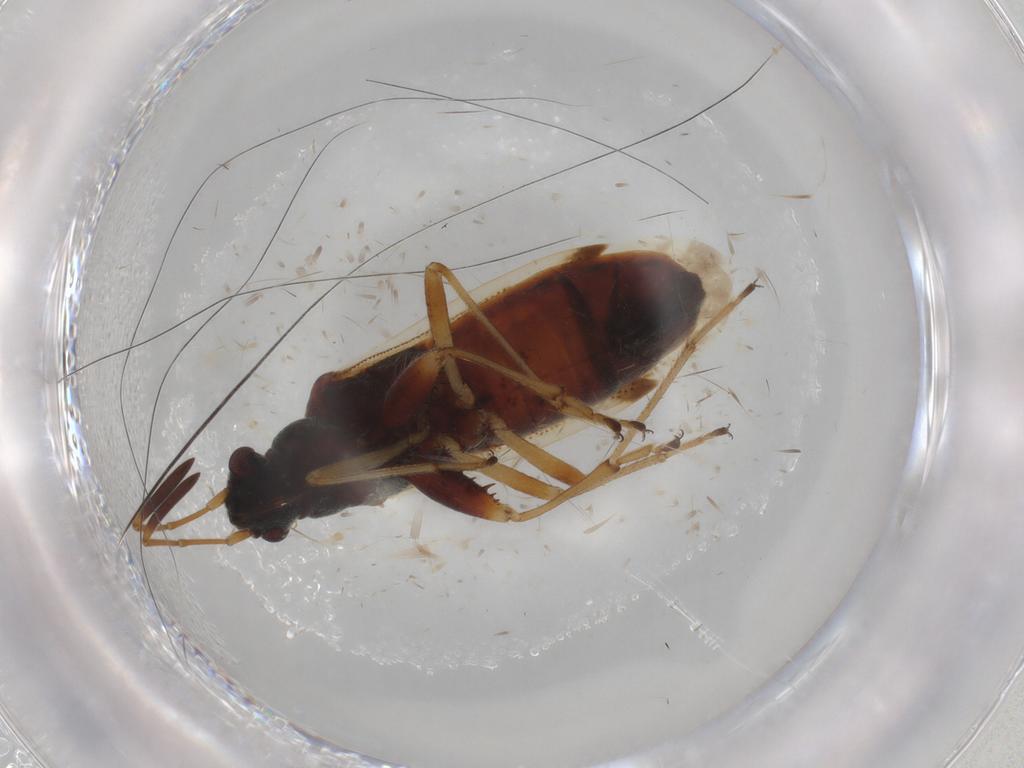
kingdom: Animalia
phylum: Arthropoda
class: Insecta
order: Hemiptera
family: Rhyparochromidae
